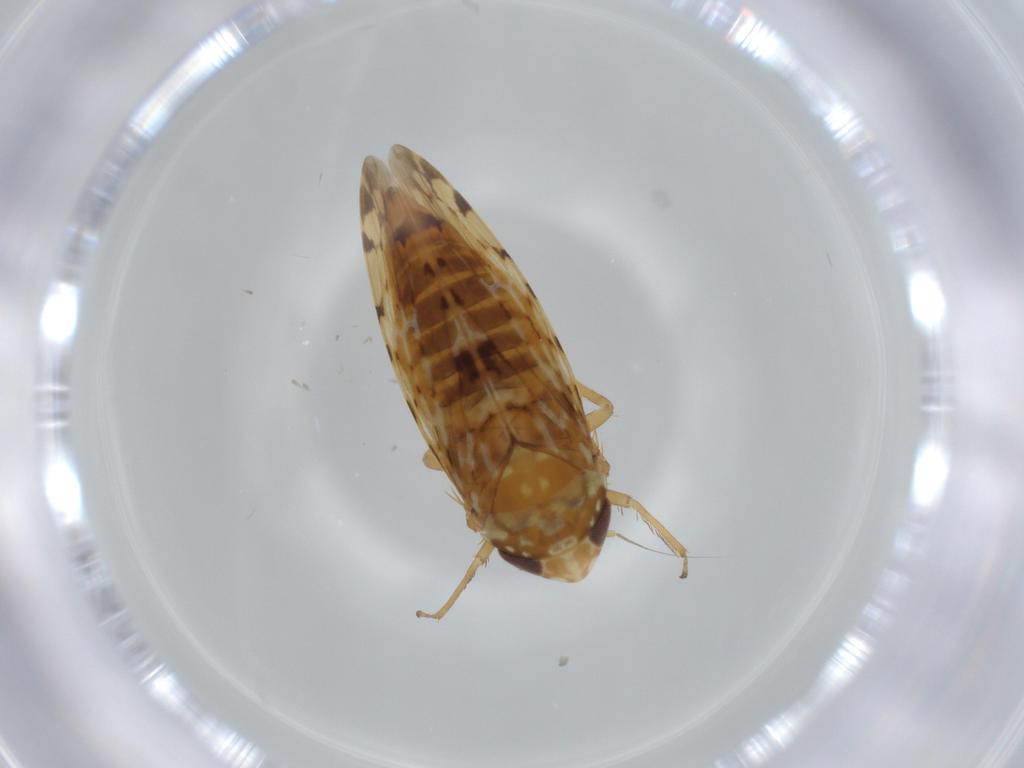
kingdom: Animalia
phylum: Arthropoda
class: Insecta
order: Hemiptera
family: Cicadellidae
